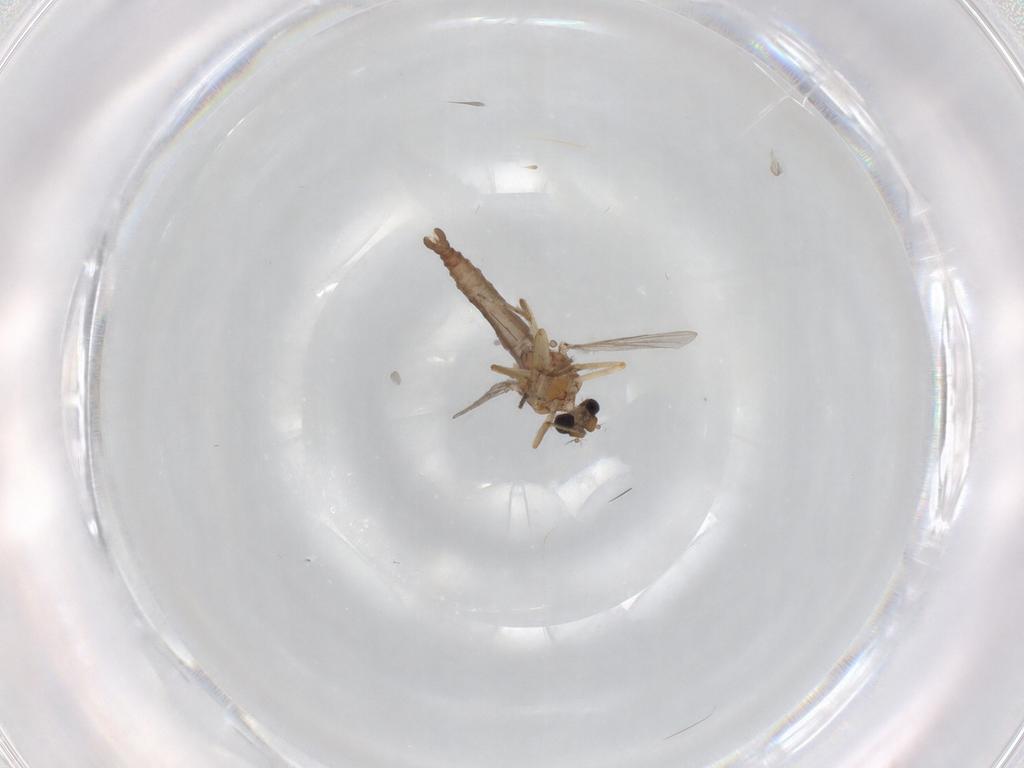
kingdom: Animalia
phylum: Arthropoda
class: Insecta
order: Diptera
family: Ceratopogonidae
